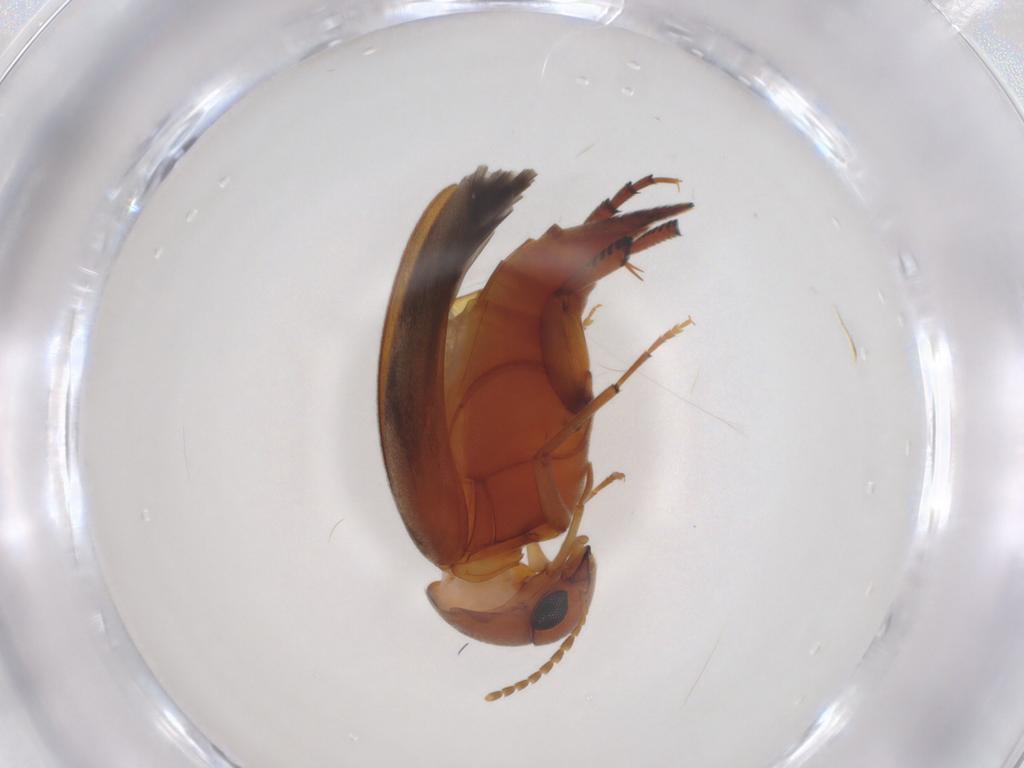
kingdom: Animalia
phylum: Arthropoda
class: Insecta
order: Coleoptera
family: Mordellidae
